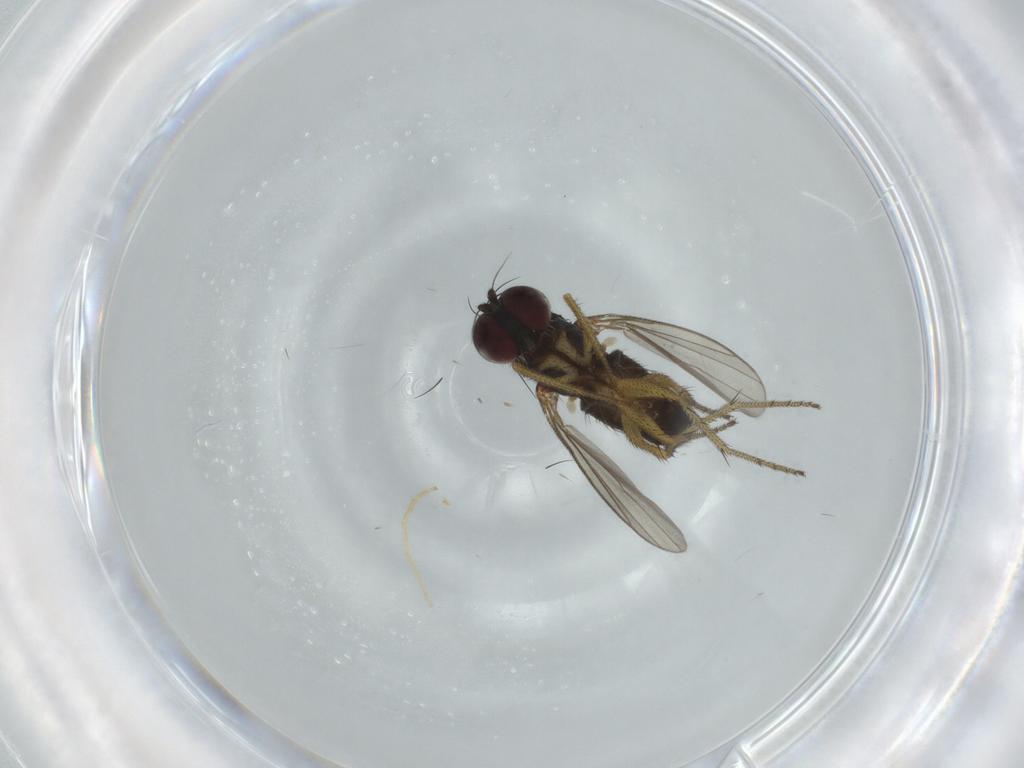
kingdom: Animalia
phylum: Arthropoda
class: Insecta
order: Diptera
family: Dolichopodidae
